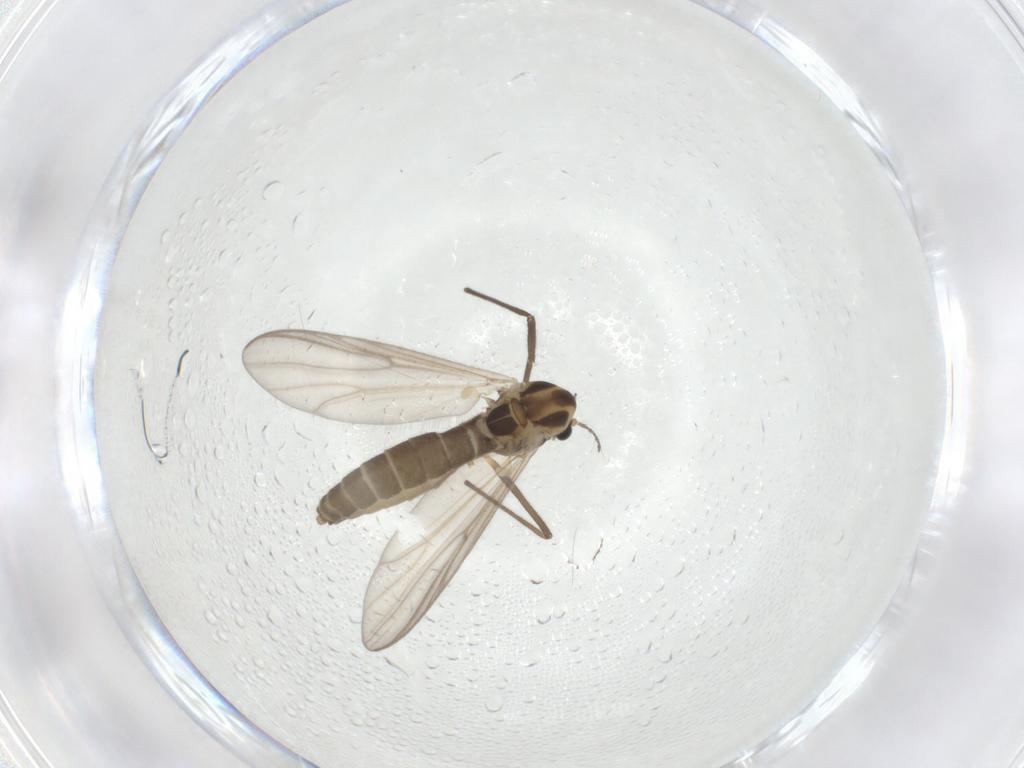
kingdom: Animalia
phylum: Arthropoda
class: Insecta
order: Diptera
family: Chironomidae
